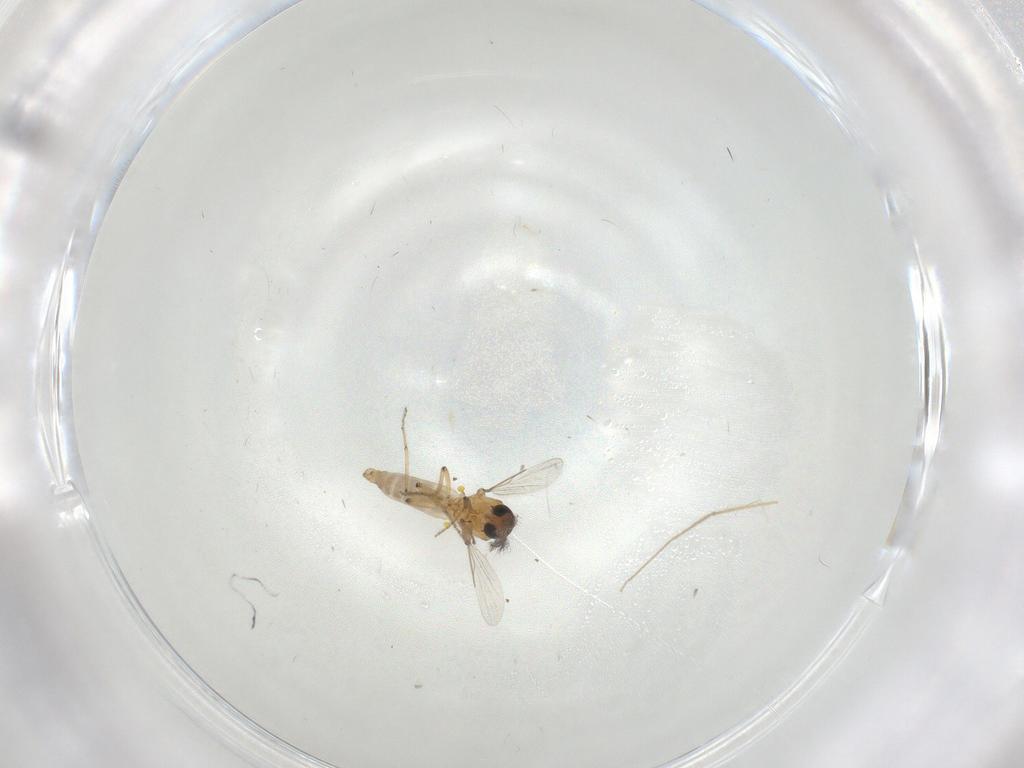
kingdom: Animalia
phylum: Arthropoda
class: Insecta
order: Diptera
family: Ceratopogonidae
